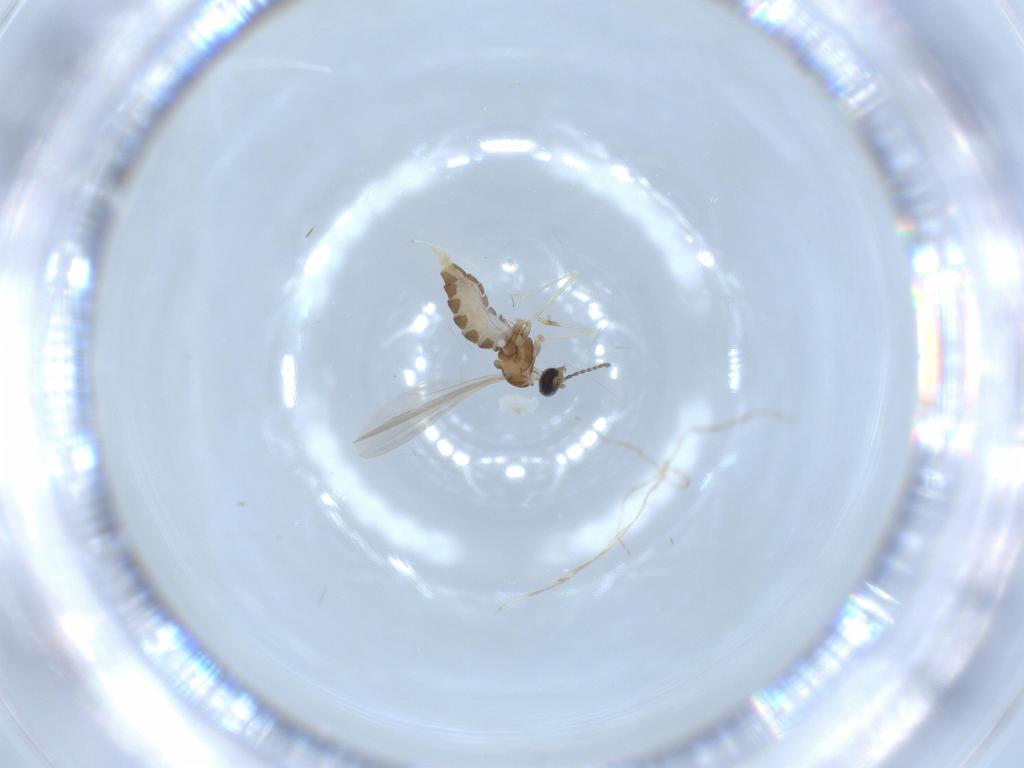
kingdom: Animalia
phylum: Arthropoda
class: Insecta
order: Diptera
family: Cecidomyiidae
